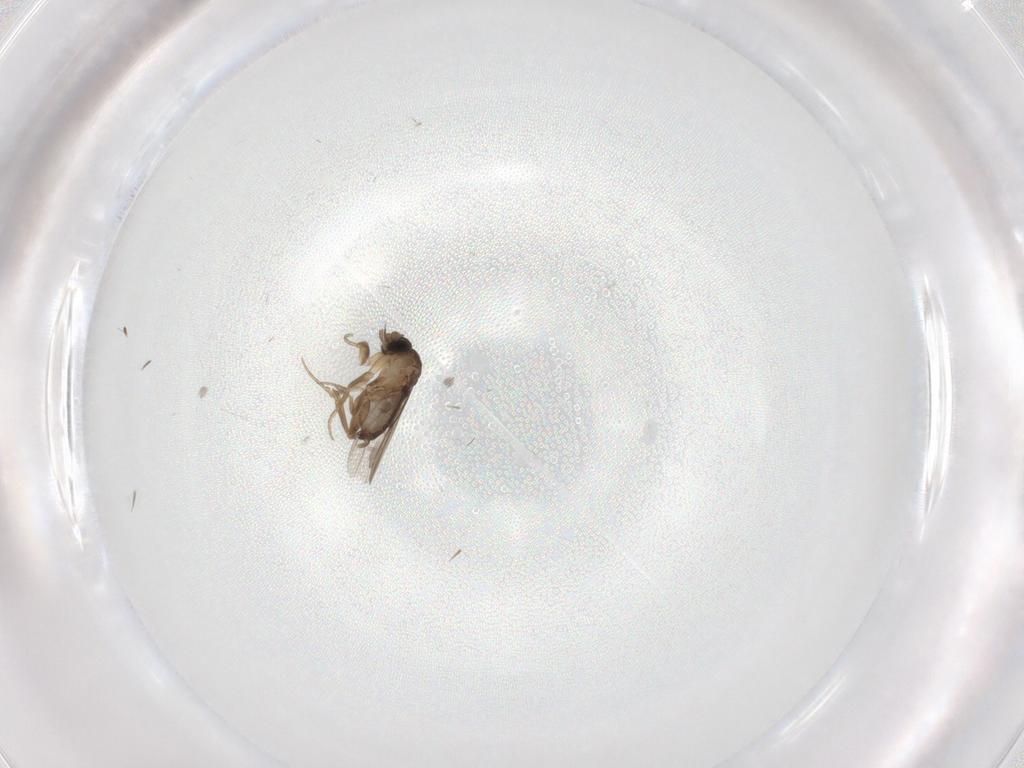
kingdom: Animalia
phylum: Arthropoda
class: Insecta
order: Diptera
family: Phoridae
